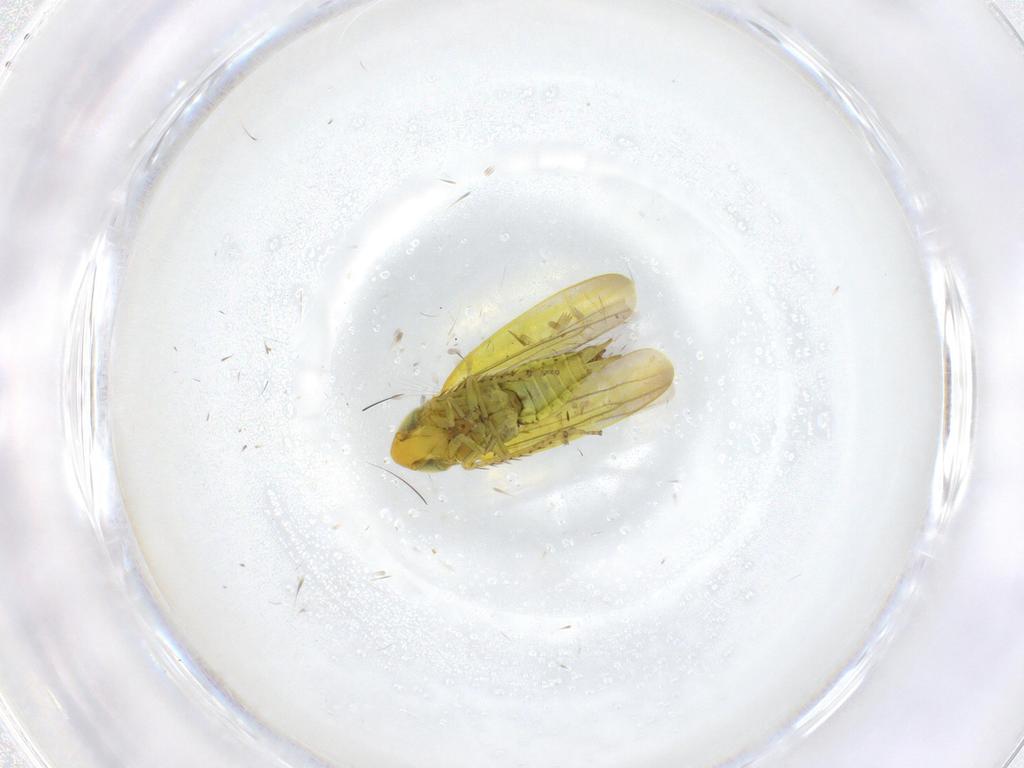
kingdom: Animalia
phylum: Arthropoda
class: Insecta
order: Hemiptera
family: Cicadellidae
